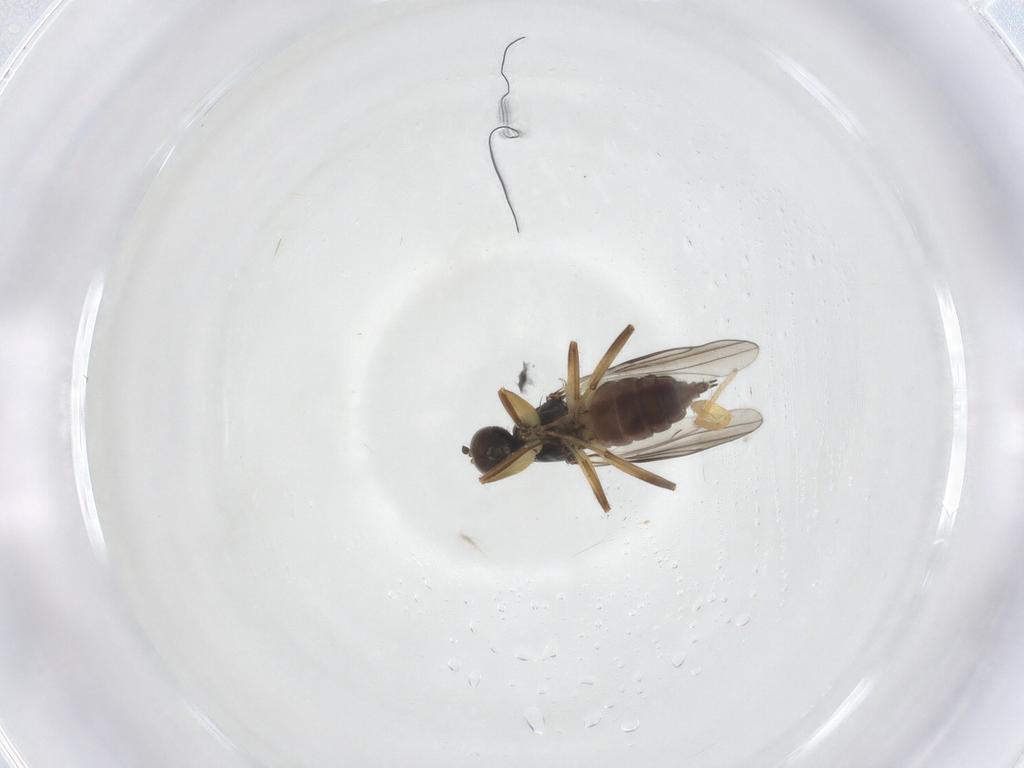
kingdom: Animalia
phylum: Arthropoda
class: Insecta
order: Diptera
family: Hybotidae
